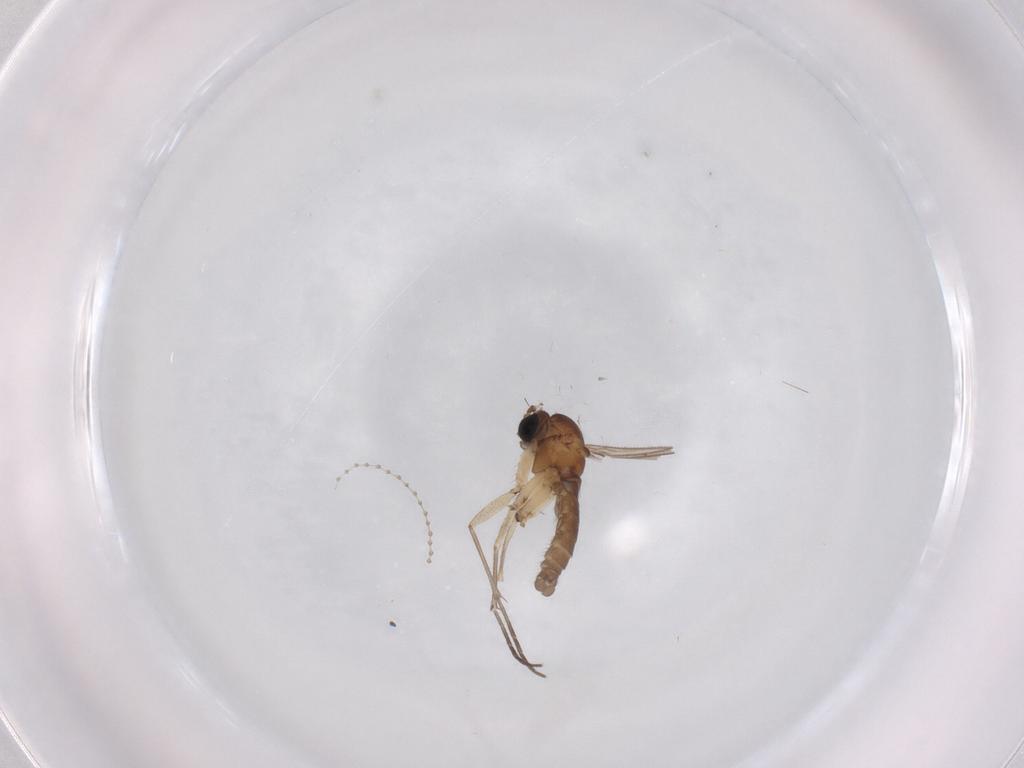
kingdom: Animalia
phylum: Arthropoda
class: Insecta
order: Diptera
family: Sciaridae
